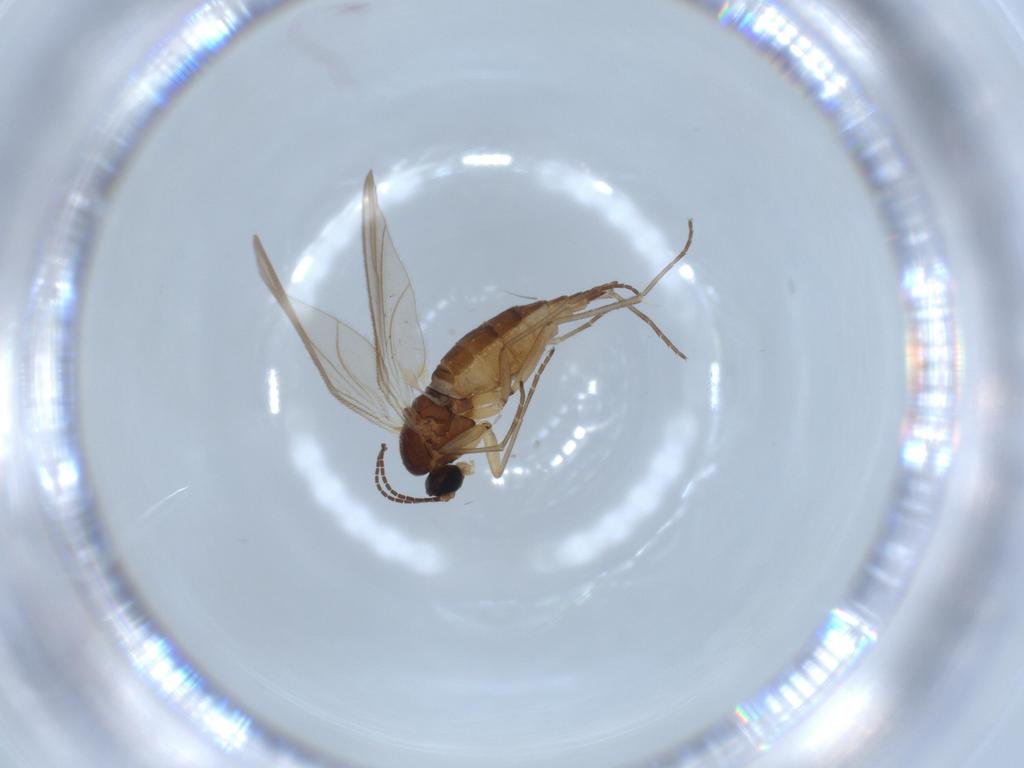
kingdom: Animalia
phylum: Arthropoda
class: Insecta
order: Diptera
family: Sciaridae
